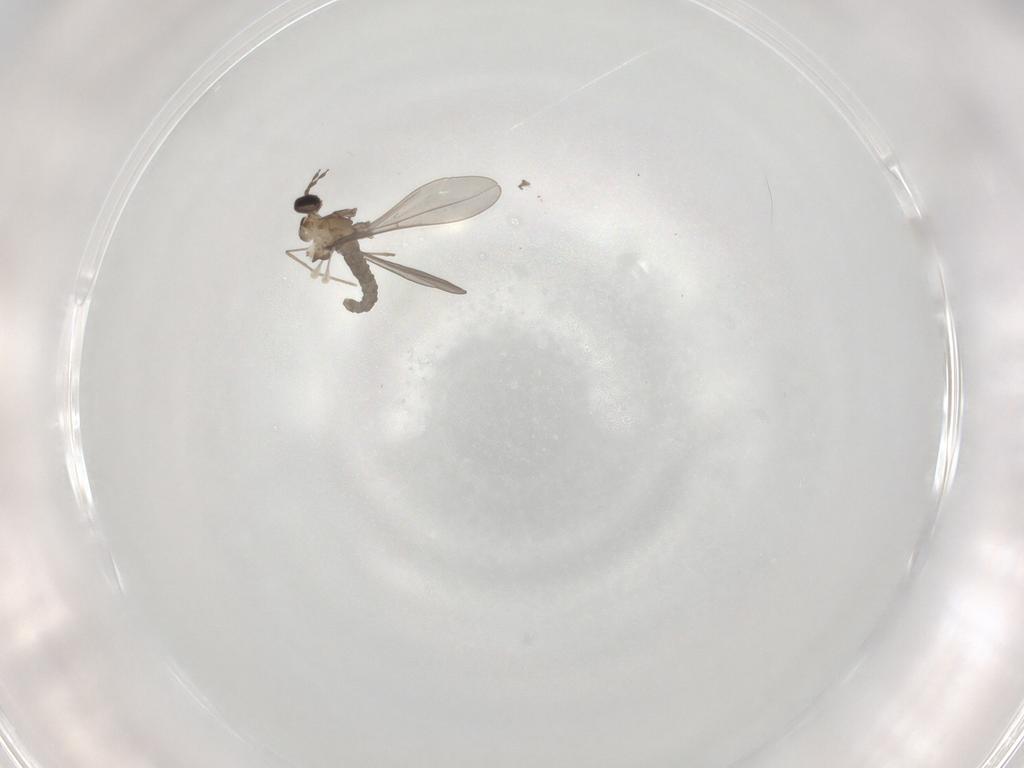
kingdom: Animalia
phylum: Arthropoda
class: Insecta
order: Diptera
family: Cecidomyiidae
